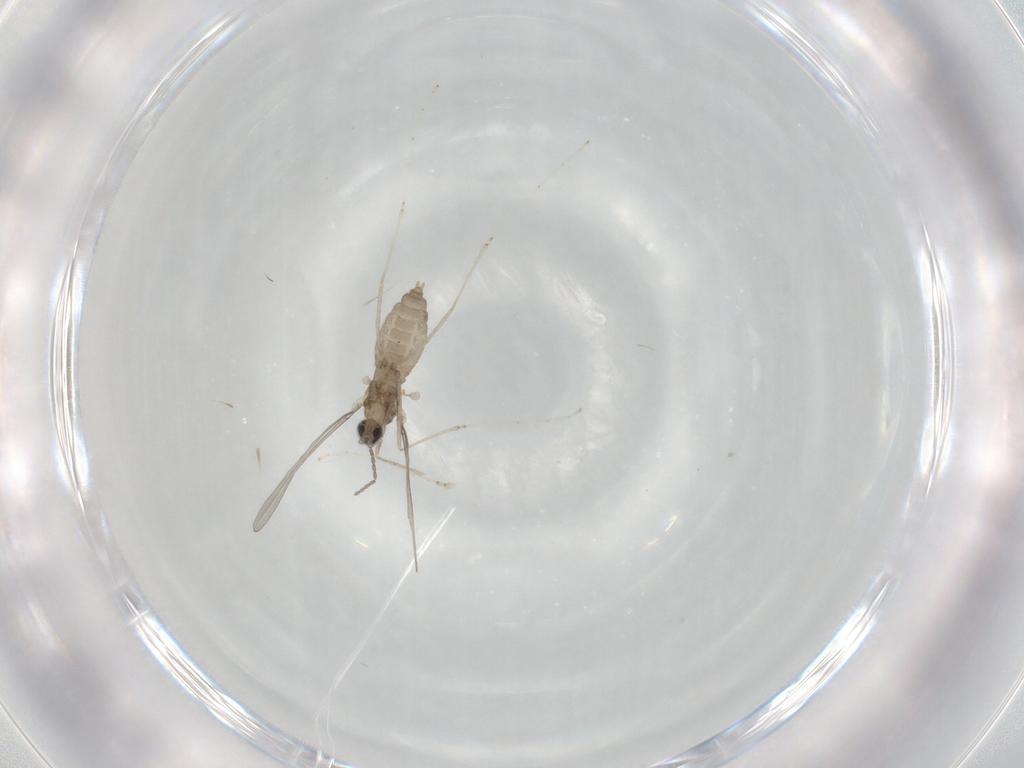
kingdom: Animalia
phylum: Arthropoda
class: Insecta
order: Diptera
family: Cecidomyiidae
